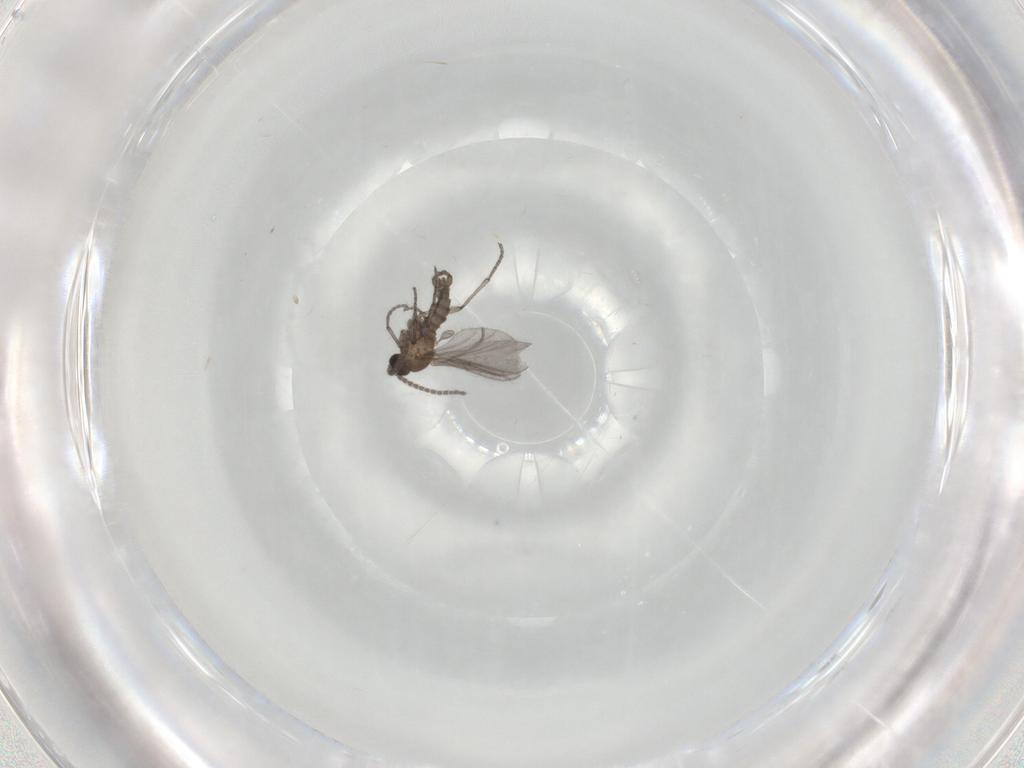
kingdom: Animalia
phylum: Arthropoda
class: Insecta
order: Diptera
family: Sciaridae
